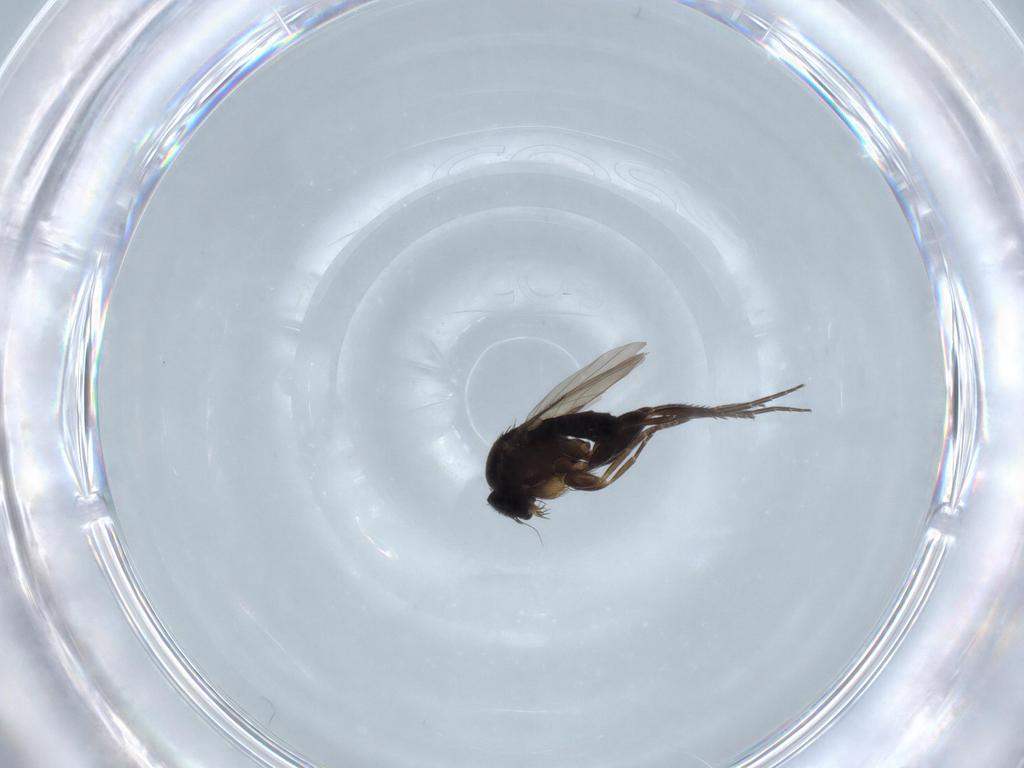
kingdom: Animalia
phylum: Arthropoda
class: Insecta
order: Diptera
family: Phoridae
